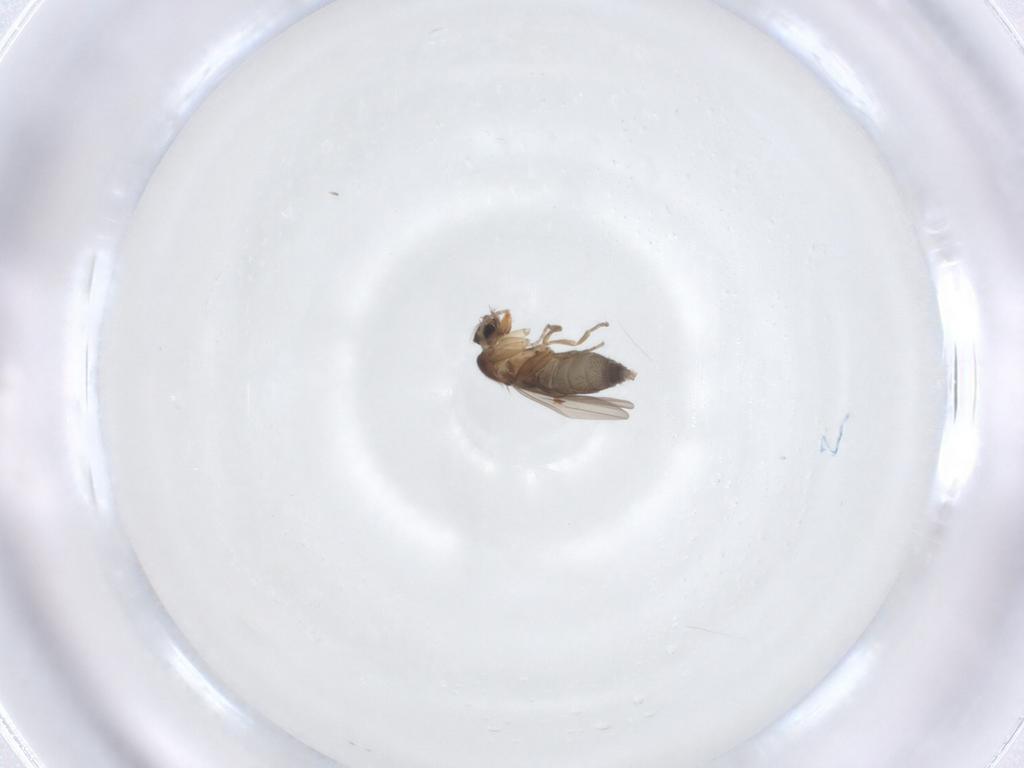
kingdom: Animalia
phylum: Arthropoda
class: Insecta
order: Diptera
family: Phoridae
